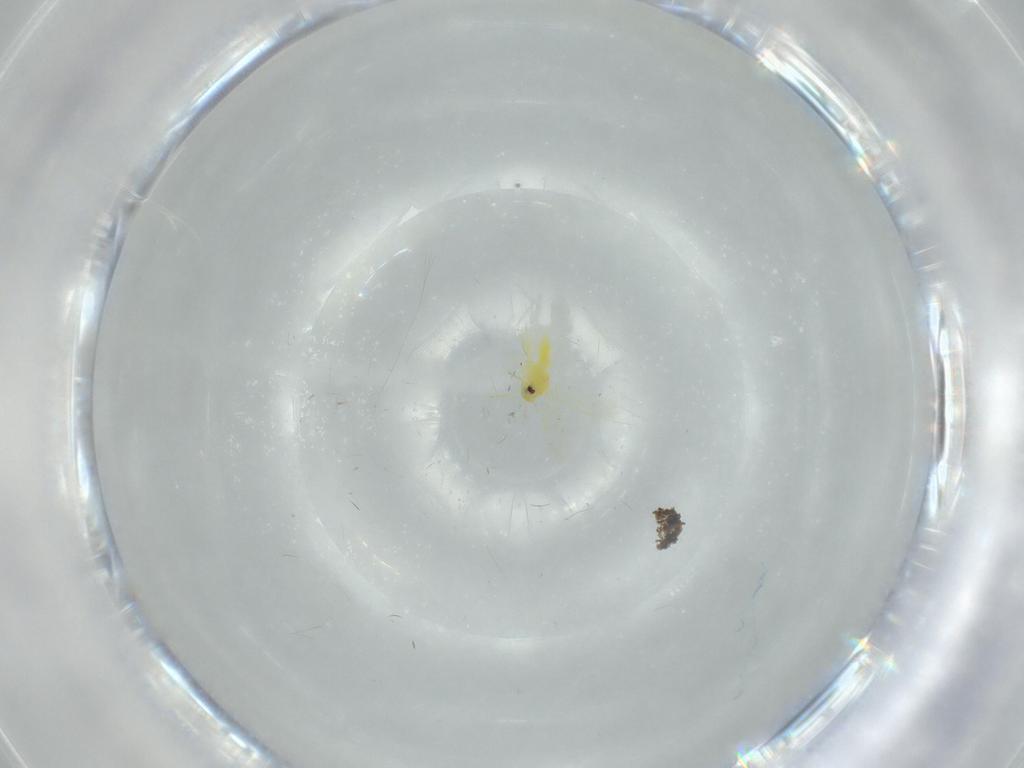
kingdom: Animalia
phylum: Arthropoda
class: Insecta
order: Hemiptera
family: Aleyrodidae
